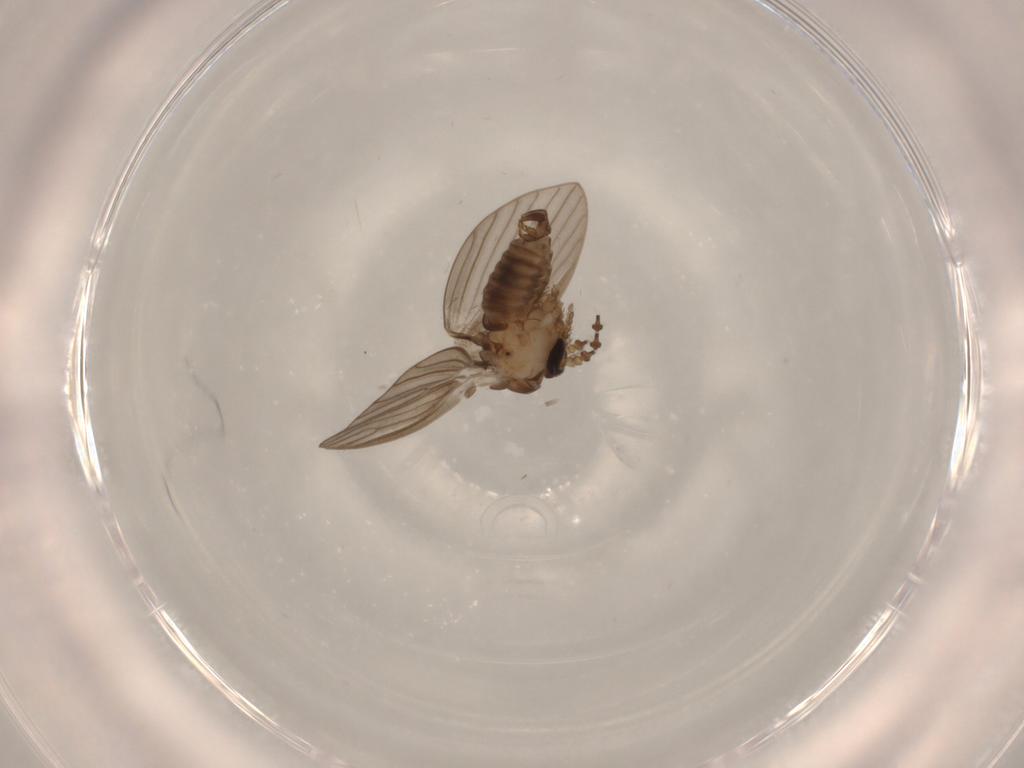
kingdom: Animalia
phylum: Arthropoda
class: Insecta
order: Diptera
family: Psychodidae
